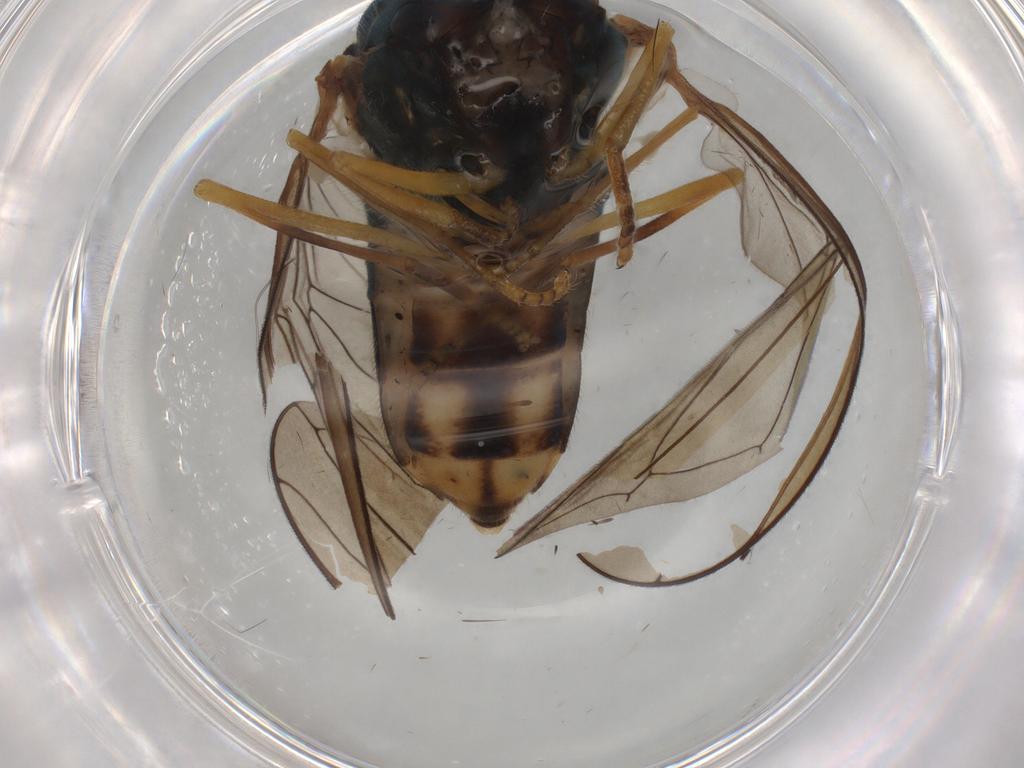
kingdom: Animalia
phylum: Arthropoda
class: Insecta
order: Diptera
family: Syrphidae
